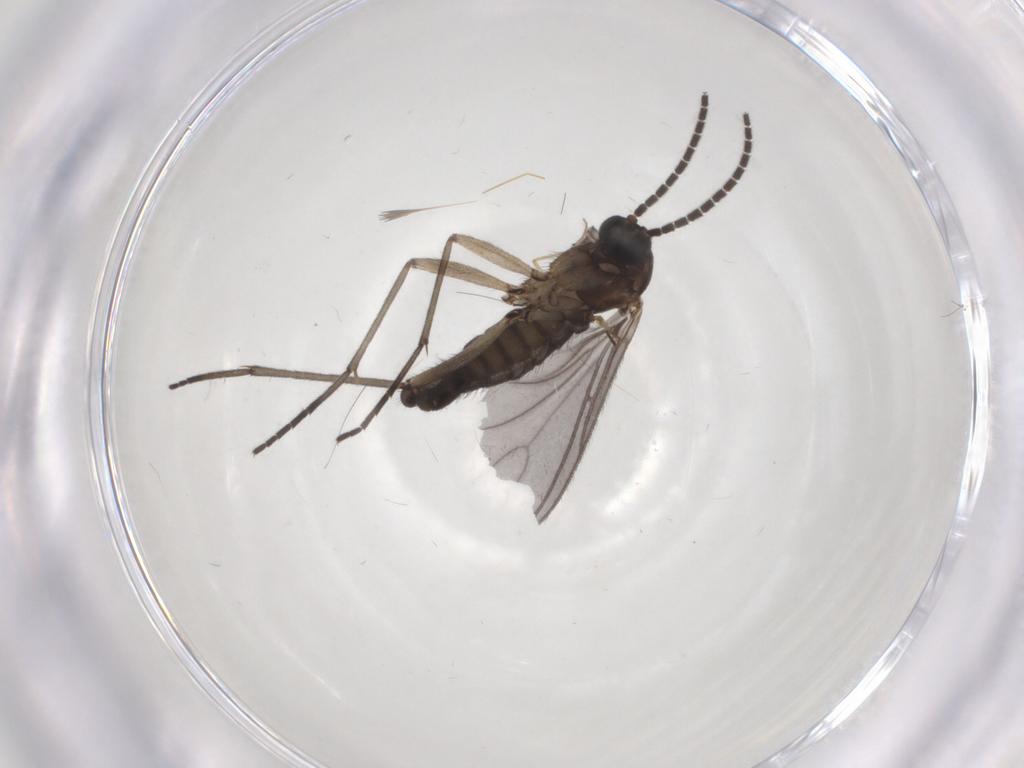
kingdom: Animalia
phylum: Arthropoda
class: Insecta
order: Diptera
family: Sciaridae
